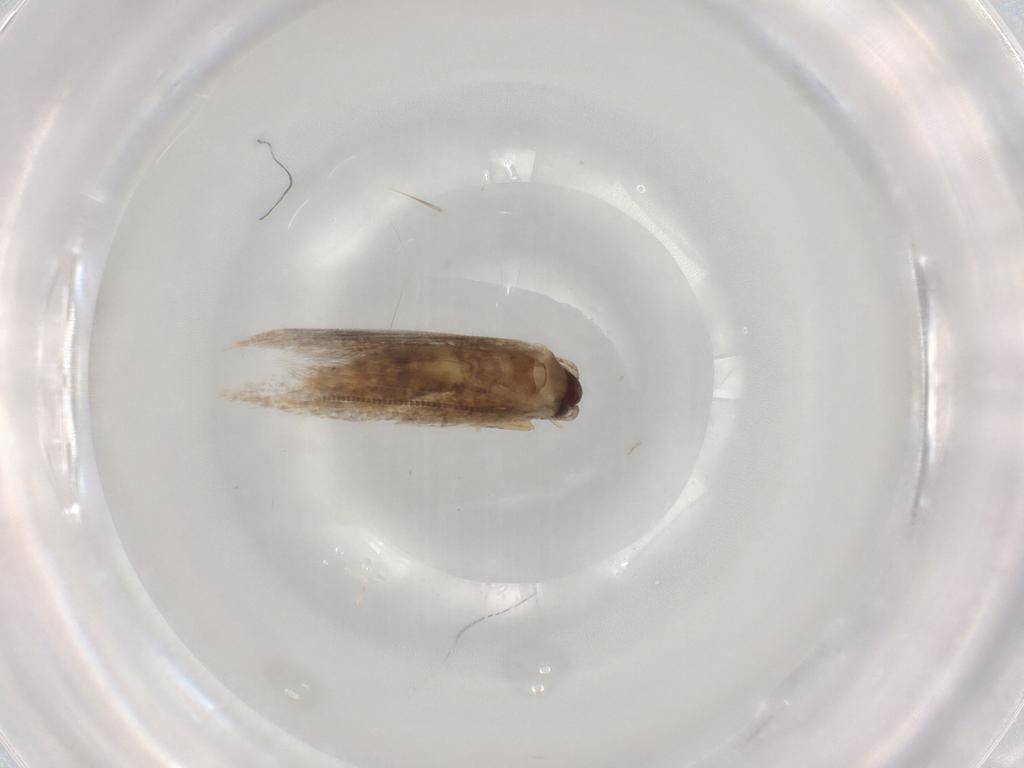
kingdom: Animalia
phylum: Arthropoda
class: Insecta
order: Lepidoptera
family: Tineidae
